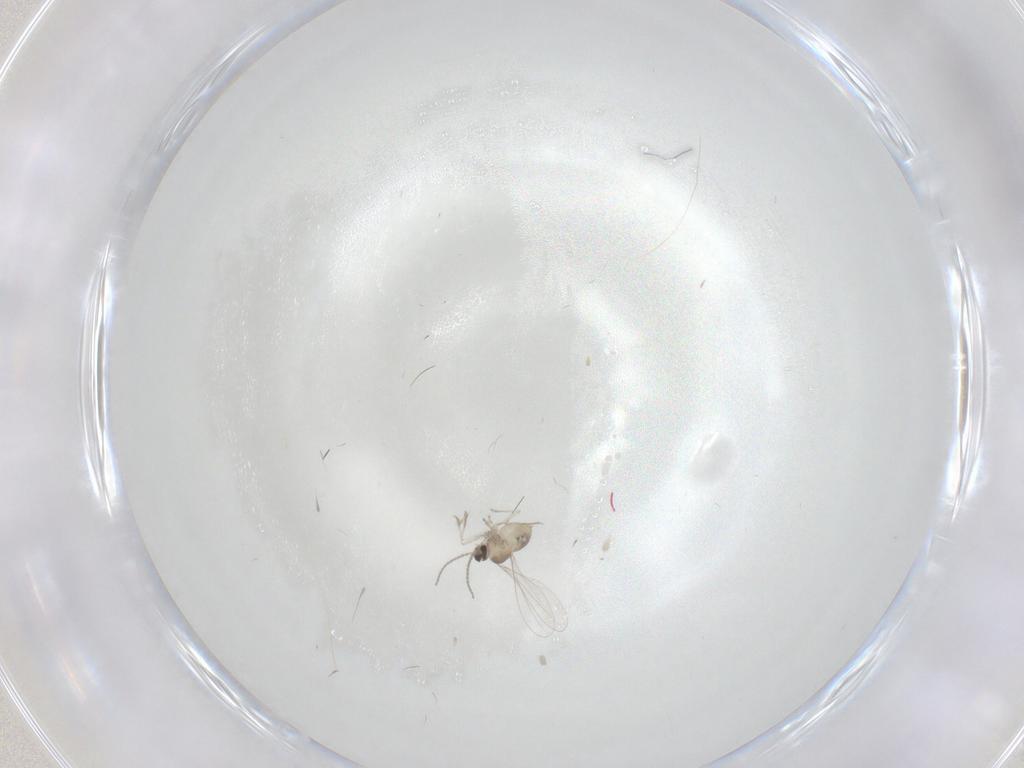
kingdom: Animalia
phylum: Arthropoda
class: Insecta
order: Diptera
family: Cecidomyiidae
